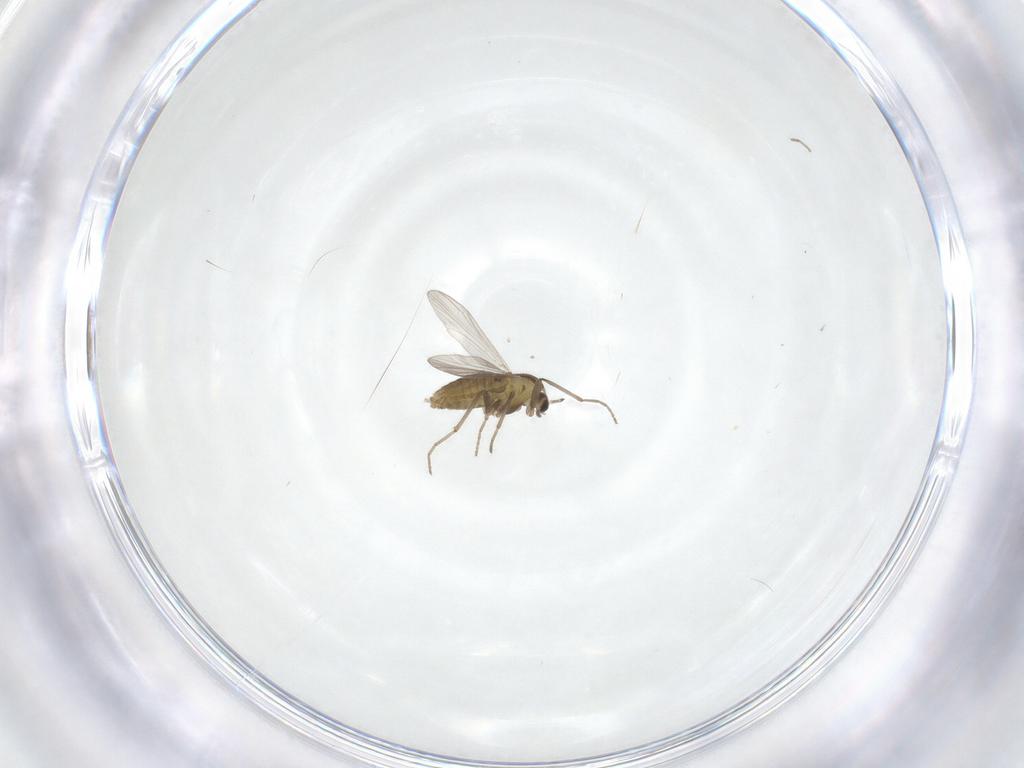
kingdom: Animalia
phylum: Arthropoda
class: Insecta
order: Diptera
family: Chironomidae
